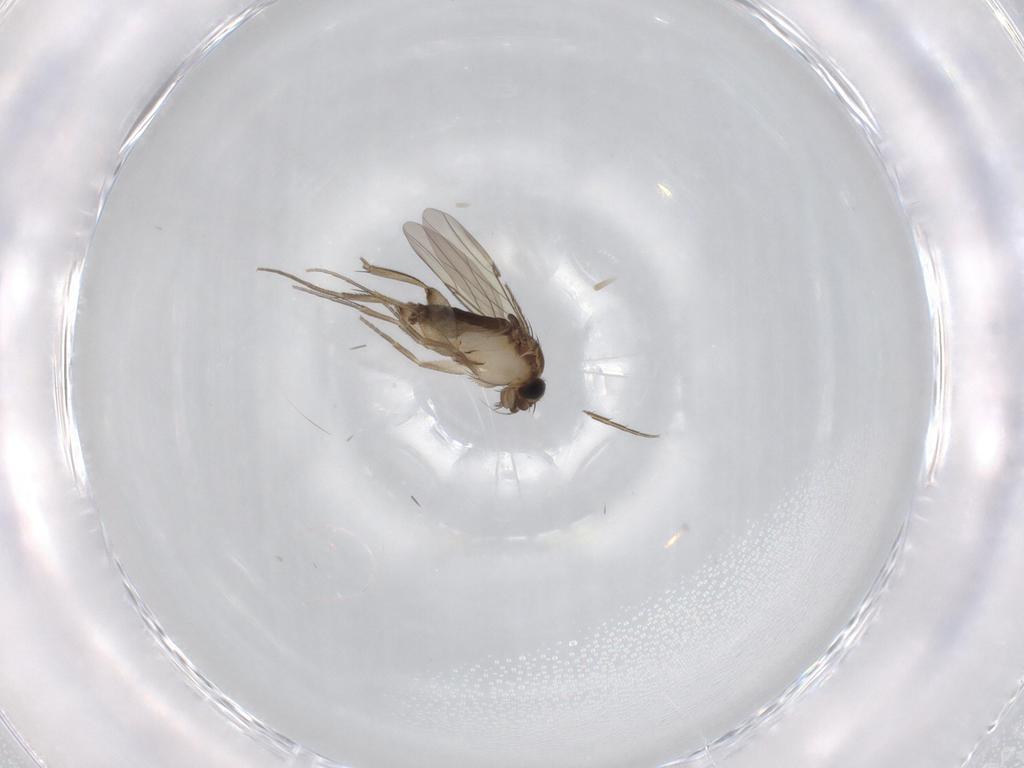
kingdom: Animalia
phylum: Arthropoda
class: Insecta
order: Diptera
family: Phoridae
